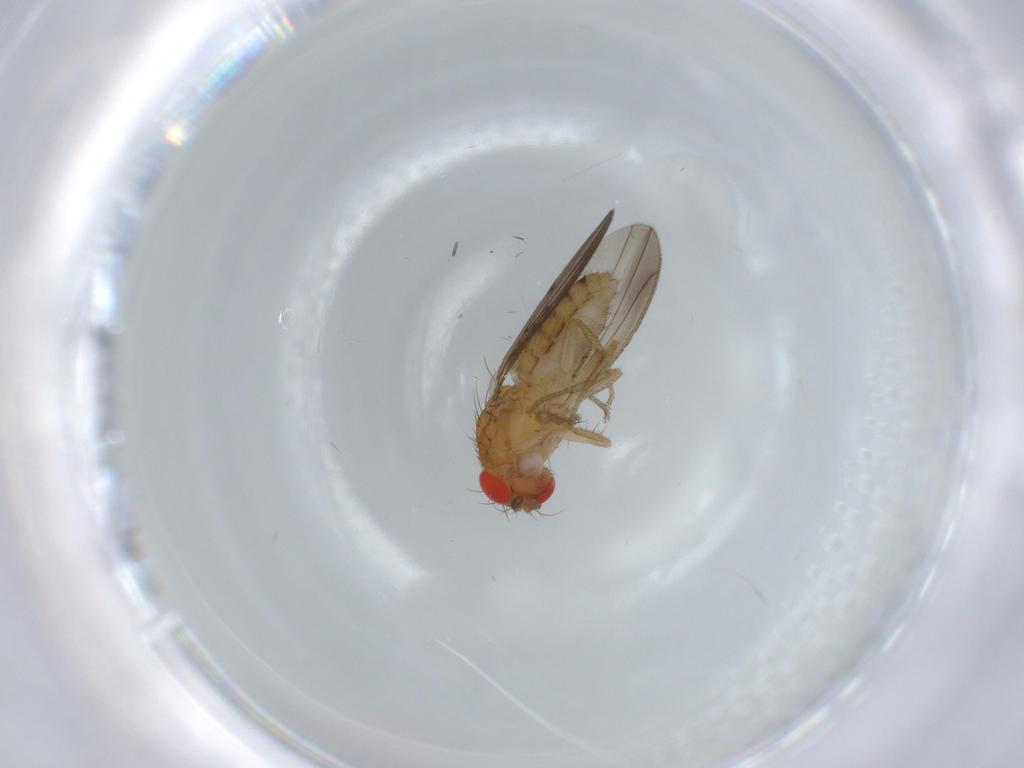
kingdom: Animalia
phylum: Arthropoda
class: Insecta
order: Diptera
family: Drosophilidae
